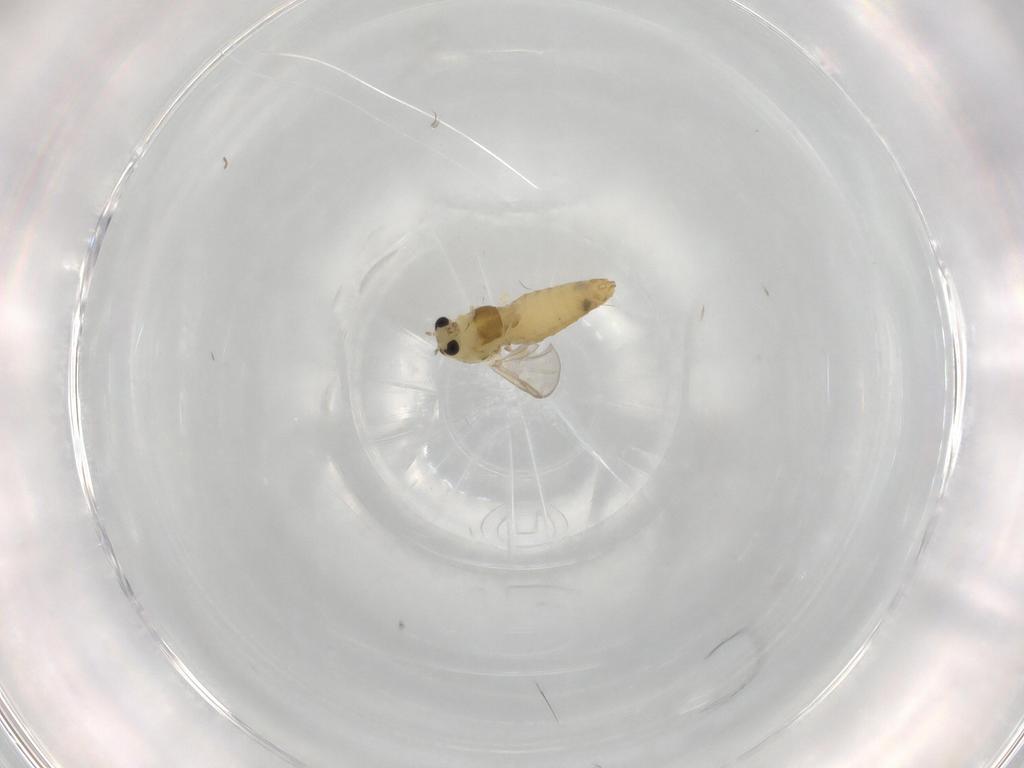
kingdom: Animalia
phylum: Arthropoda
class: Insecta
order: Diptera
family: Chironomidae
